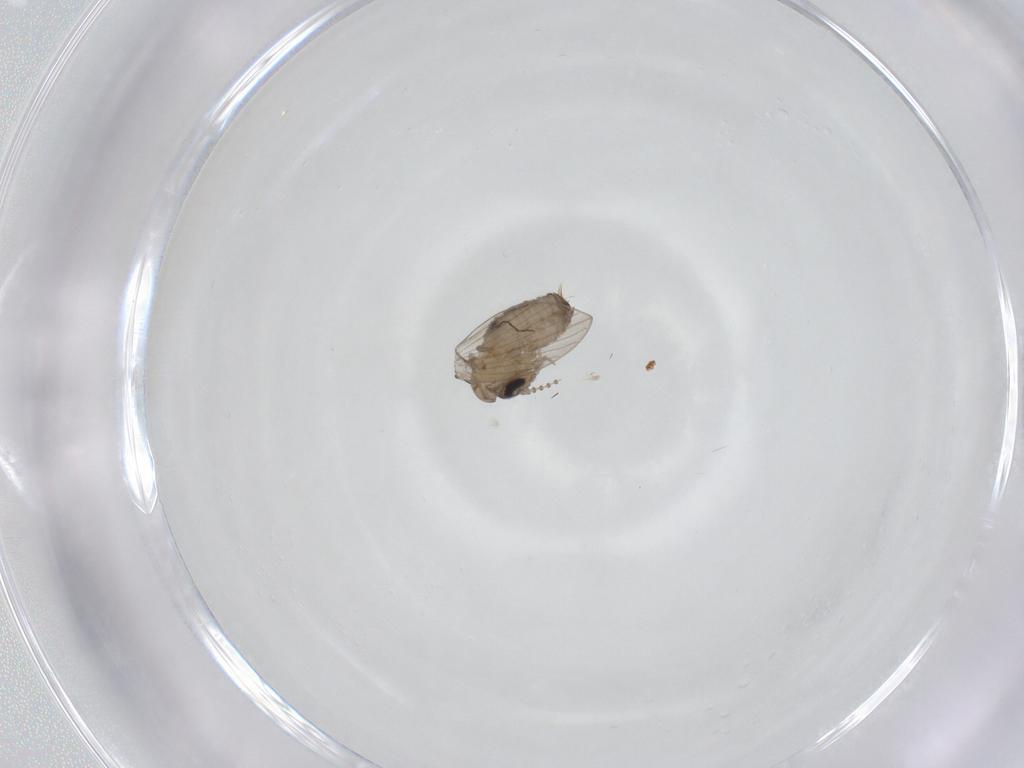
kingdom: Animalia
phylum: Arthropoda
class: Insecta
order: Diptera
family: Psychodidae
